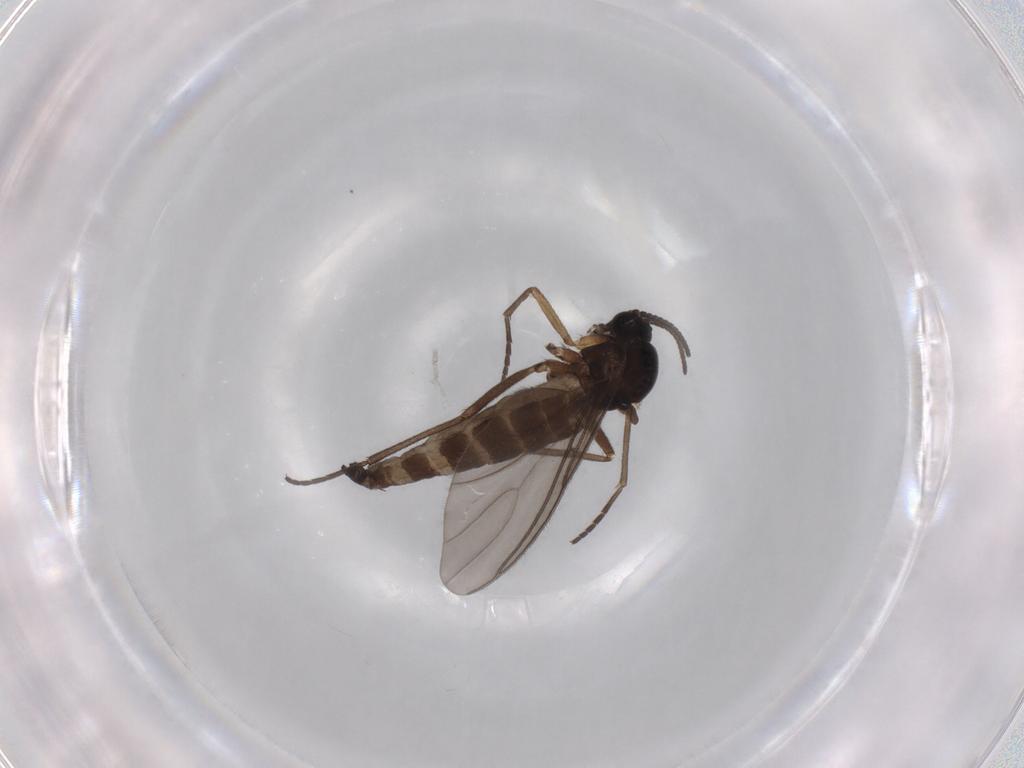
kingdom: Animalia
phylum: Arthropoda
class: Insecta
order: Diptera
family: Sciaridae
